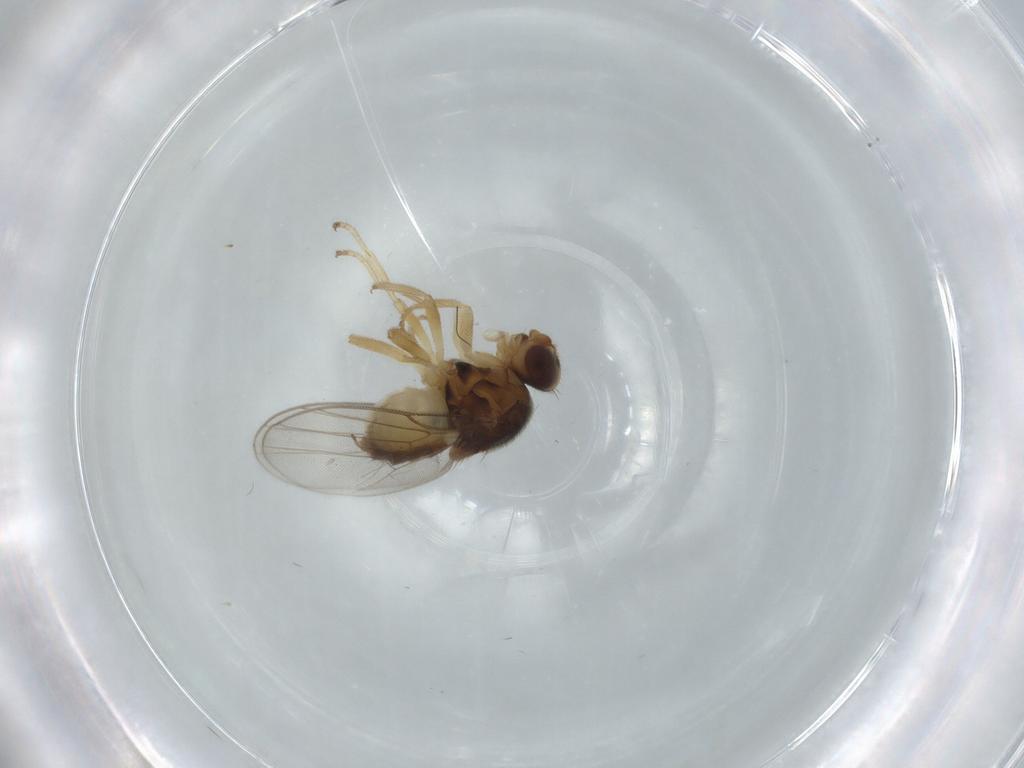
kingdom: Animalia
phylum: Arthropoda
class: Insecta
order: Diptera
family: Chloropidae
